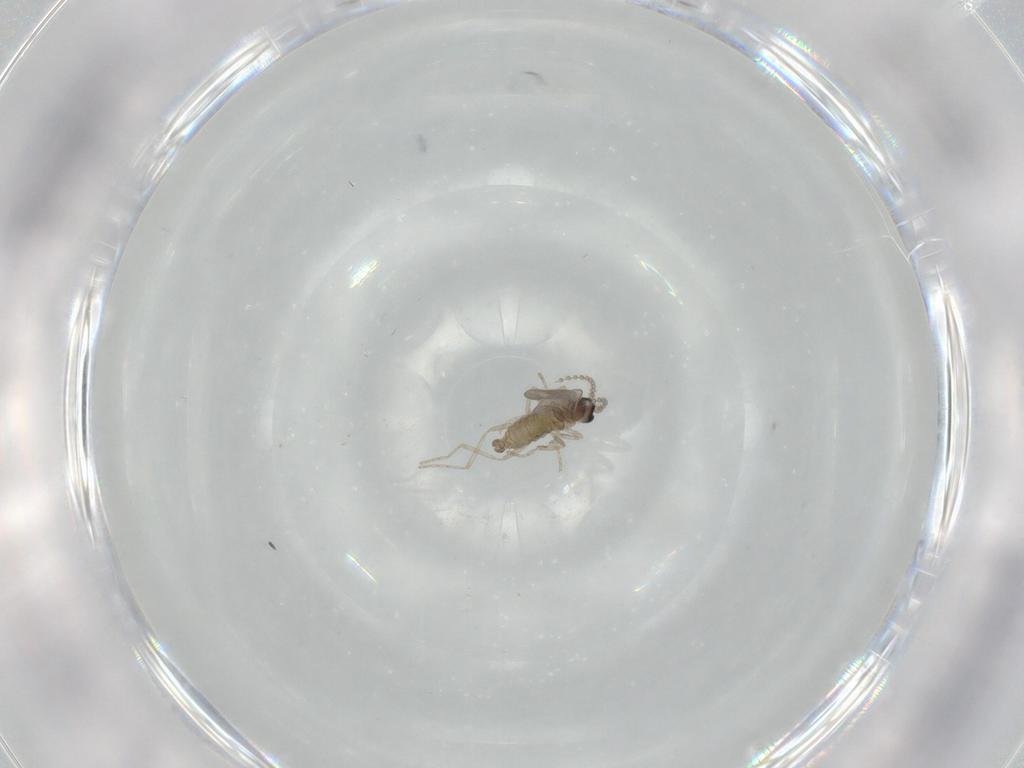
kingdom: Animalia
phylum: Arthropoda
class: Insecta
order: Diptera
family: Cecidomyiidae
